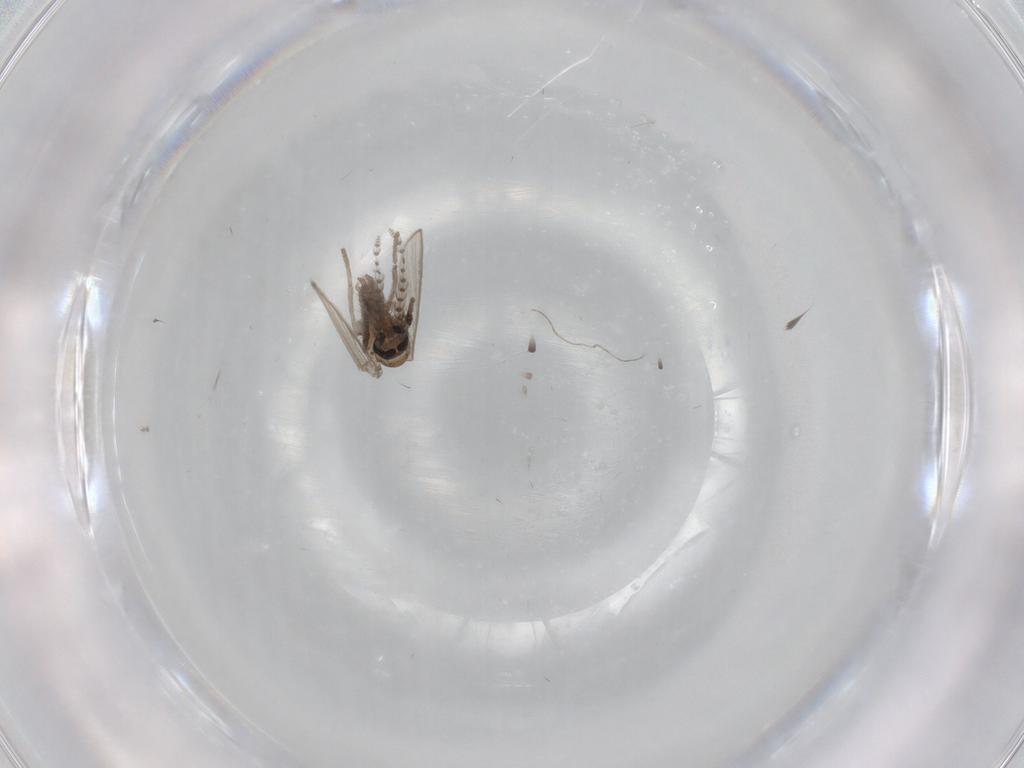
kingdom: Animalia
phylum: Arthropoda
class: Insecta
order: Diptera
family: Psychodidae
